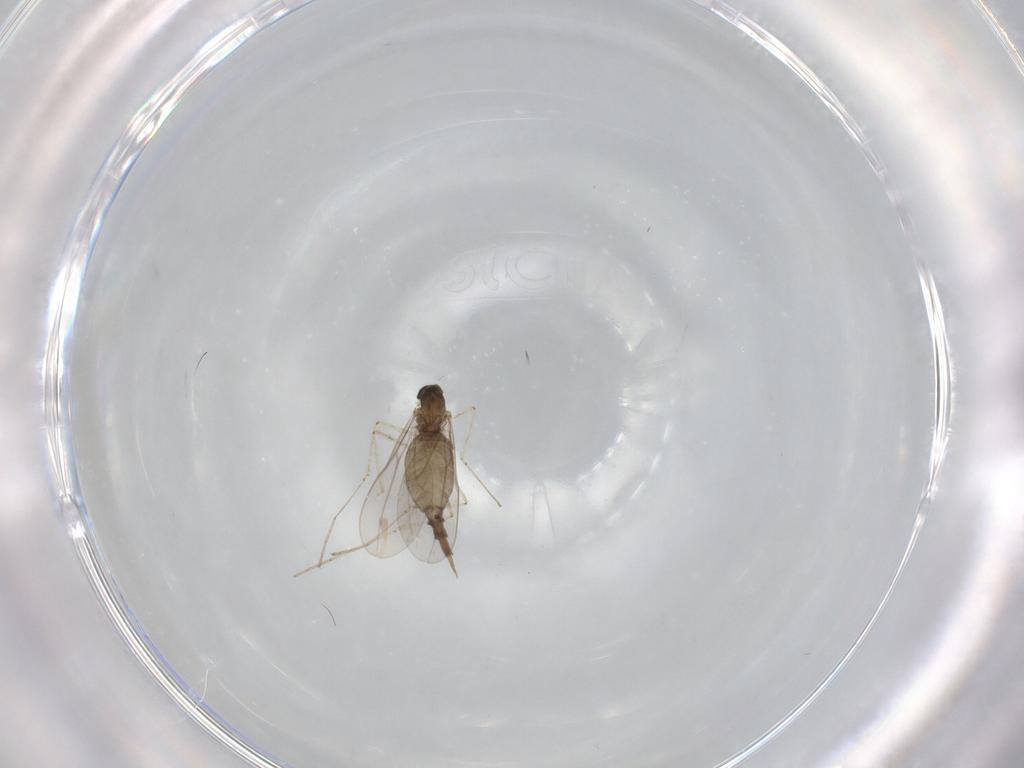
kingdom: Animalia
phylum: Arthropoda
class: Insecta
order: Diptera
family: Cecidomyiidae
